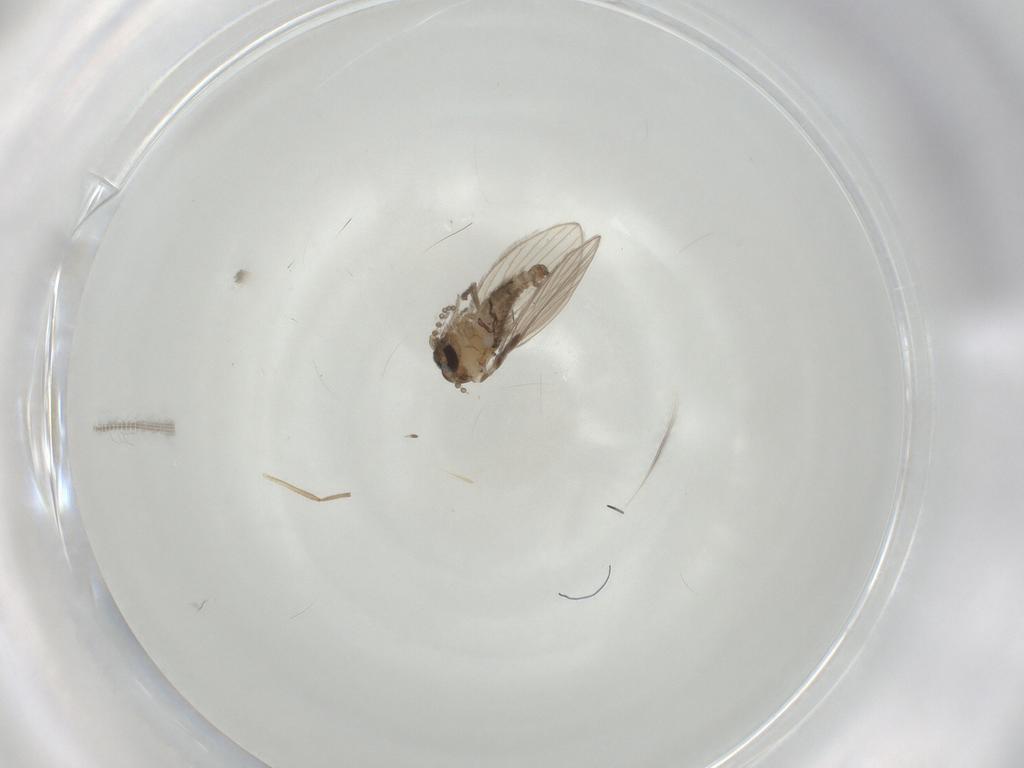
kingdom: Animalia
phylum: Arthropoda
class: Insecta
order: Diptera
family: Psychodidae
